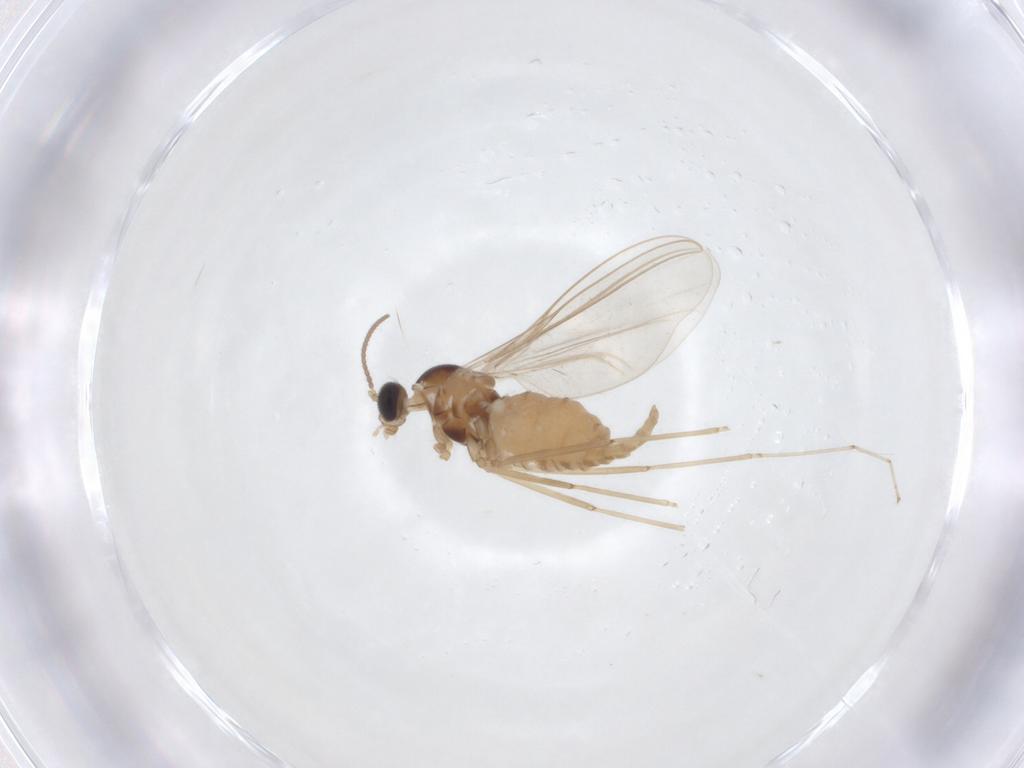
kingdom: Animalia
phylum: Arthropoda
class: Insecta
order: Diptera
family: Cecidomyiidae
